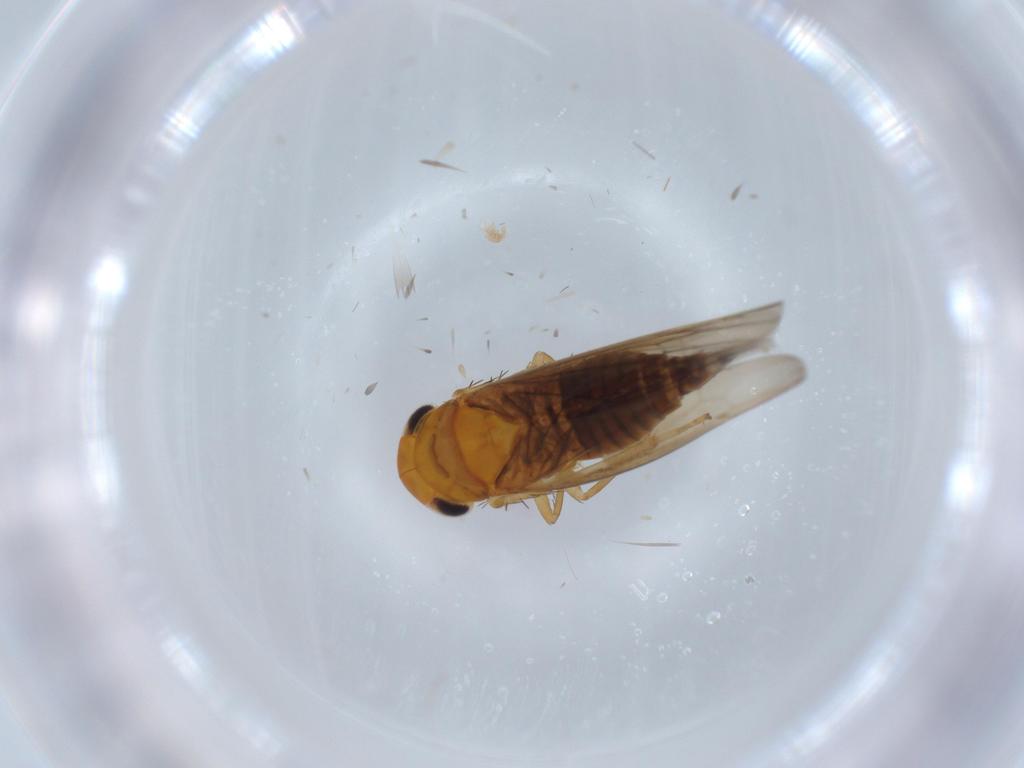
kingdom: Animalia
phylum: Arthropoda
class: Insecta
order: Hemiptera
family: Cicadellidae
